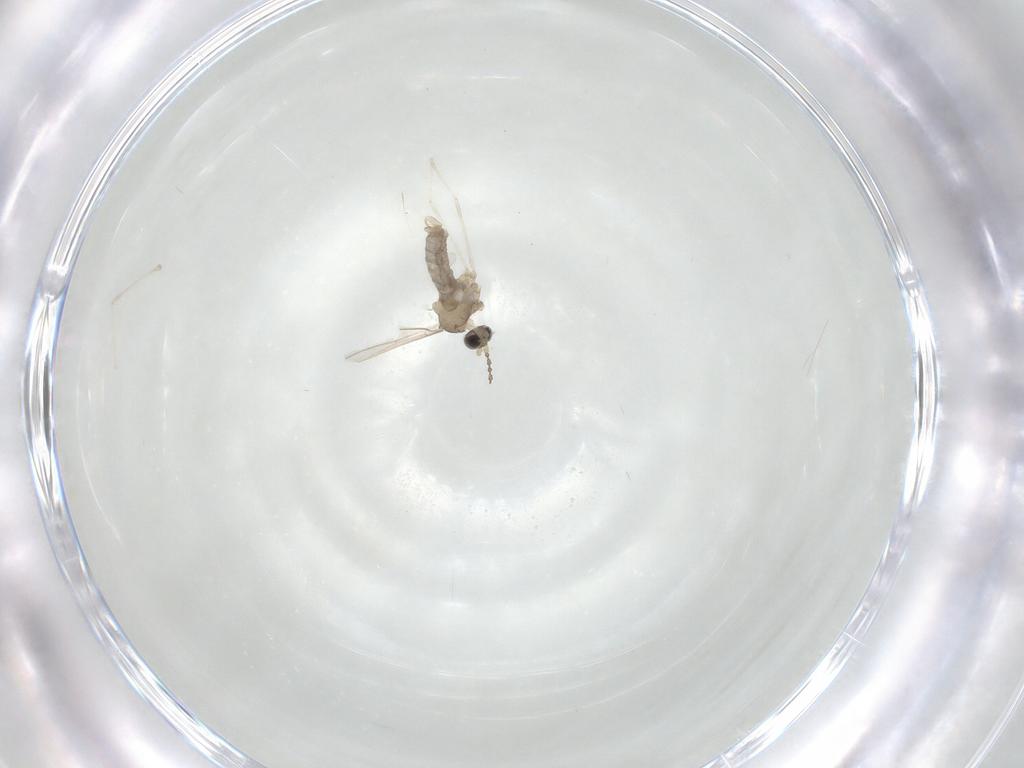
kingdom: Animalia
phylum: Arthropoda
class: Insecta
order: Diptera
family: Cecidomyiidae
